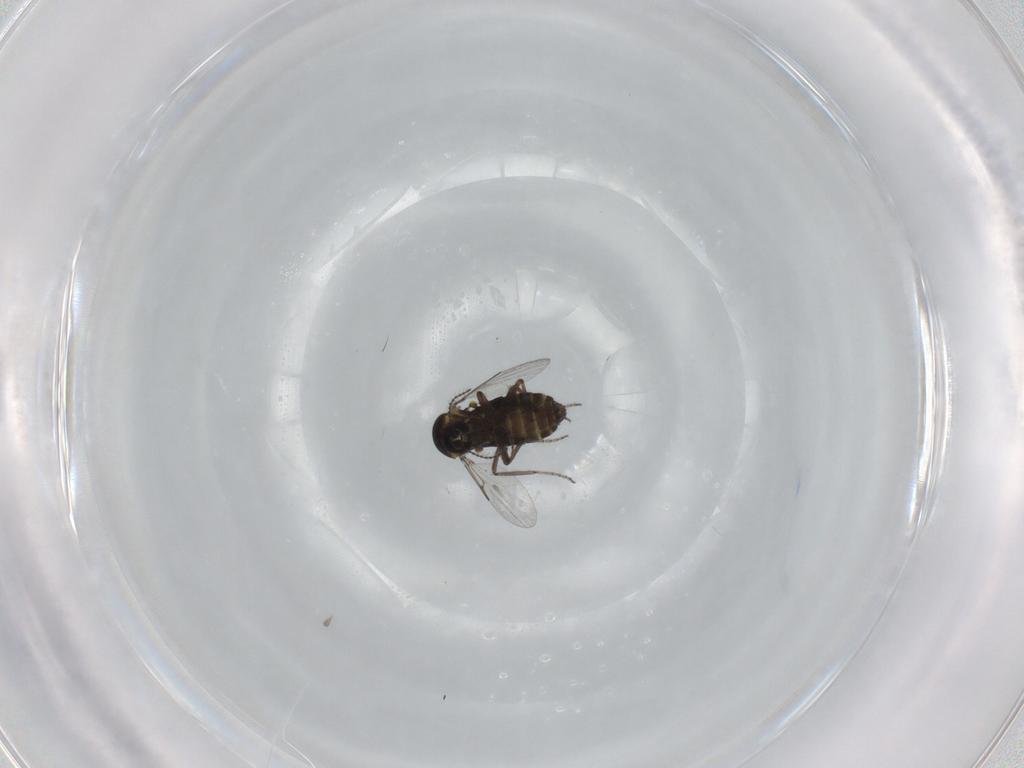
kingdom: Animalia
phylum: Arthropoda
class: Insecta
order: Diptera
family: Ceratopogonidae
